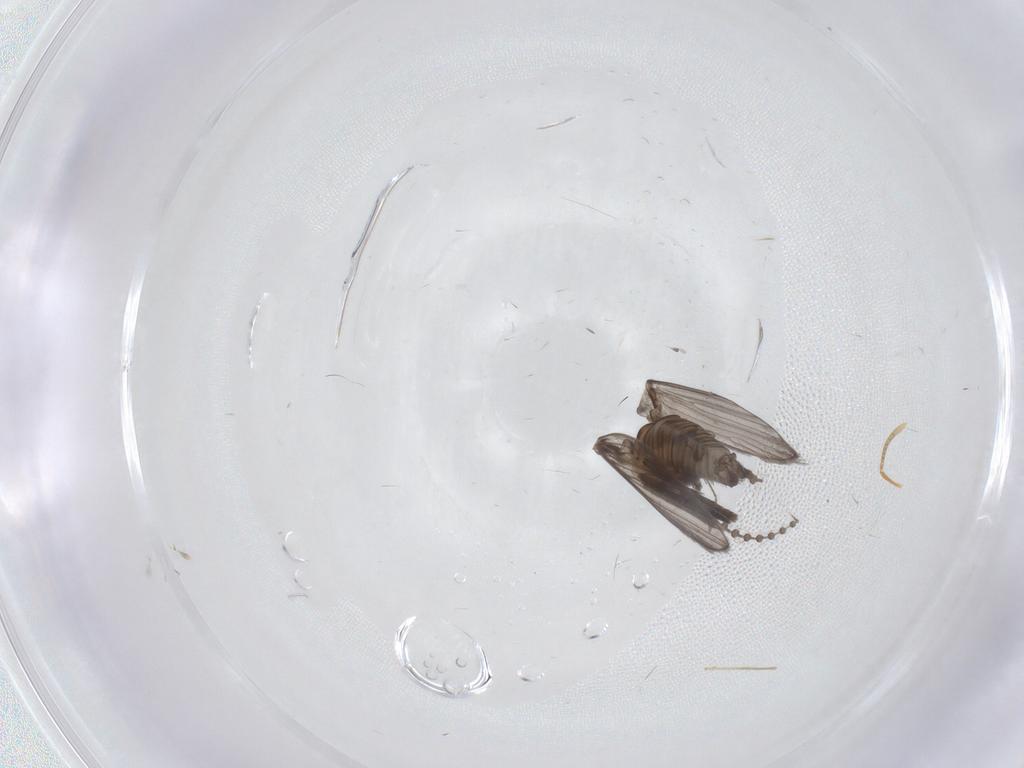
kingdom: Animalia
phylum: Arthropoda
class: Insecta
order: Diptera
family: Psychodidae
